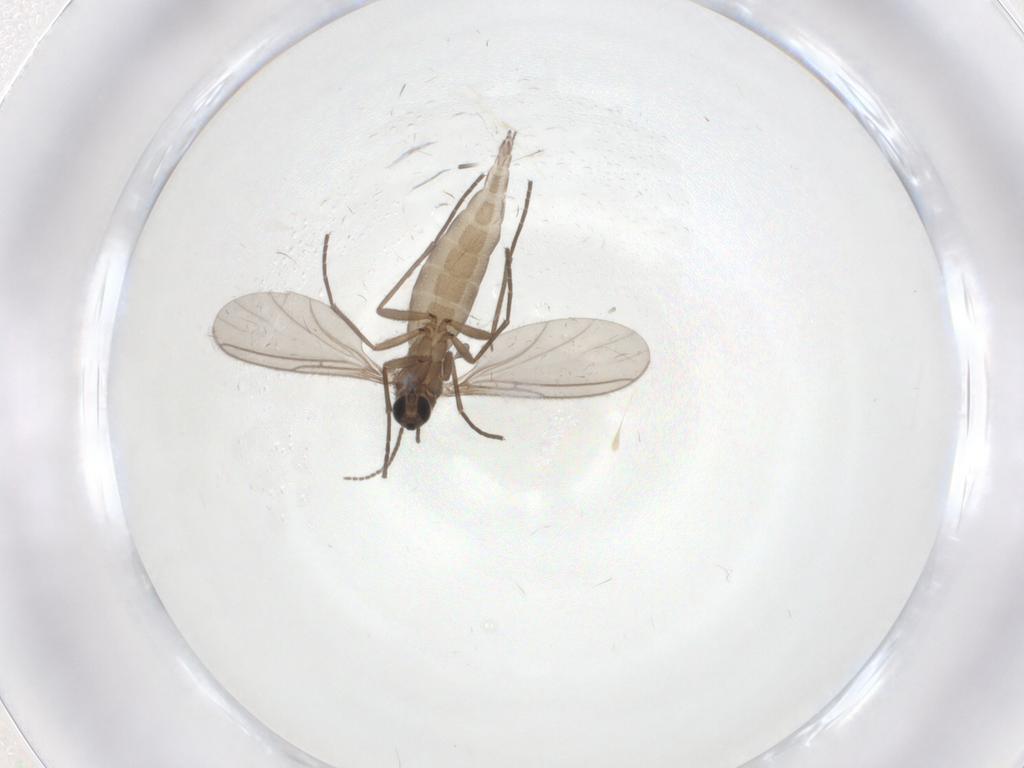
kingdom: Animalia
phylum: Arthropoda
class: Insecta
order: Diptera
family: Sciaridae
